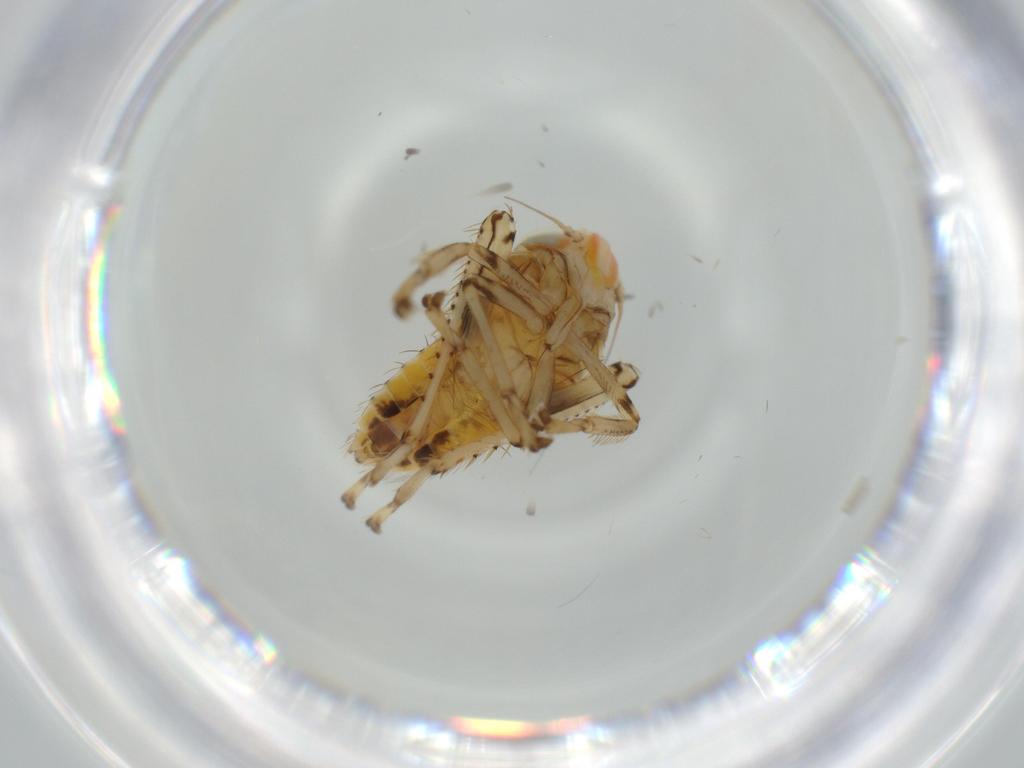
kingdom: Animalia
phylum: Arthropoda
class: Insecta
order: Hemiptera
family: Cicadellidae
